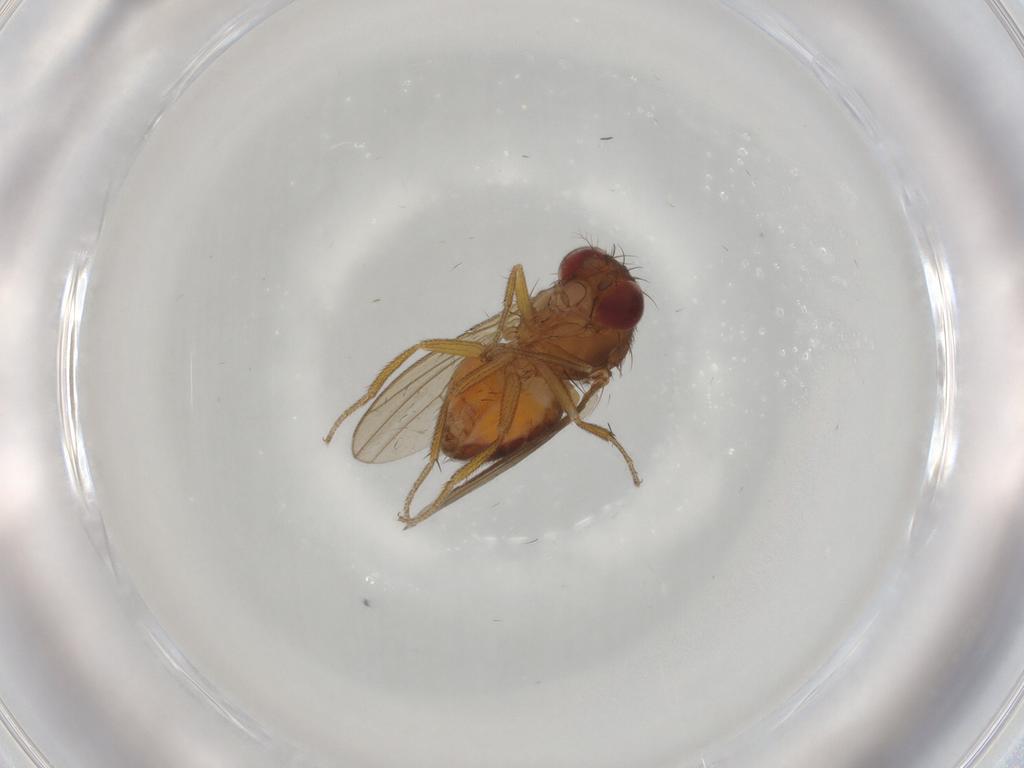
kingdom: Animalia
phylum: Arthropoda
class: Insecta
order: Diptera
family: Drosophilidae
